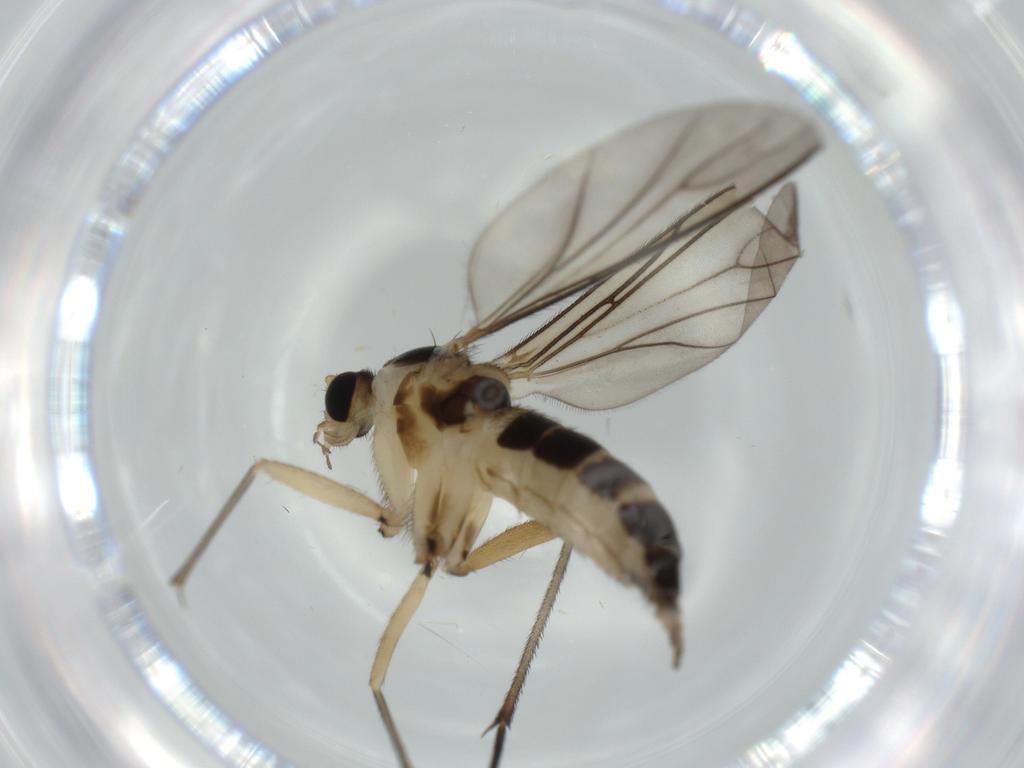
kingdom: Animalia
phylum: Arthropoda
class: Insecta
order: Diptera
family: Sciaridae
